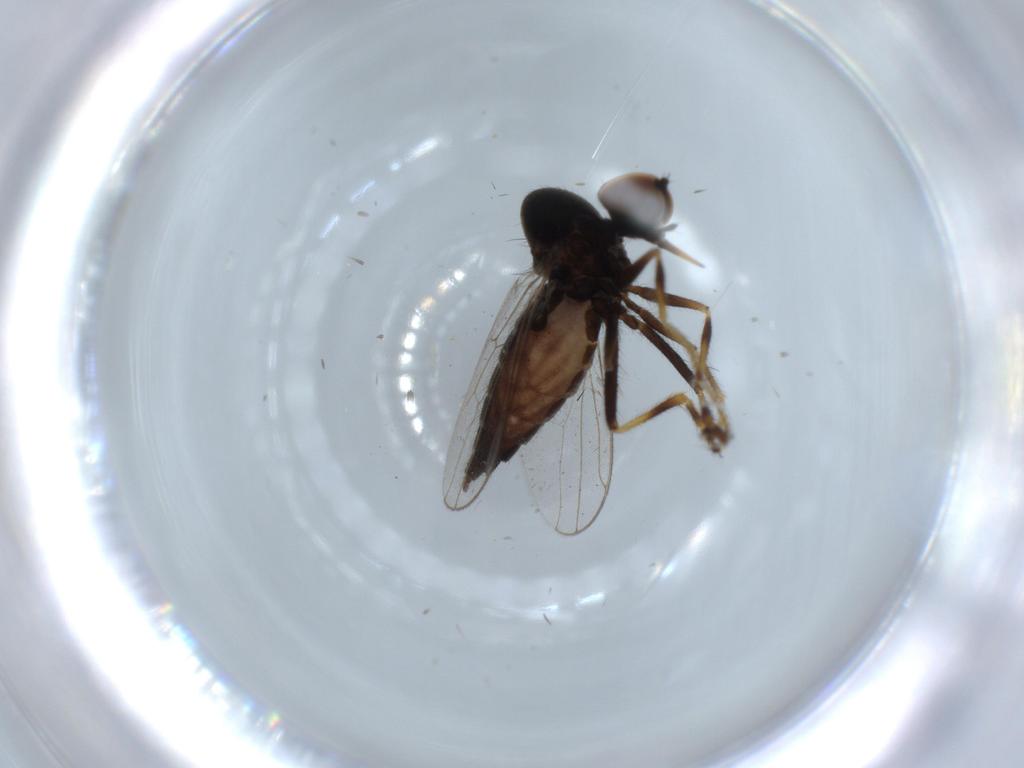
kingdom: Animalia
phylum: Arthropoda
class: Insecta
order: Diptera
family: Hybotidae
